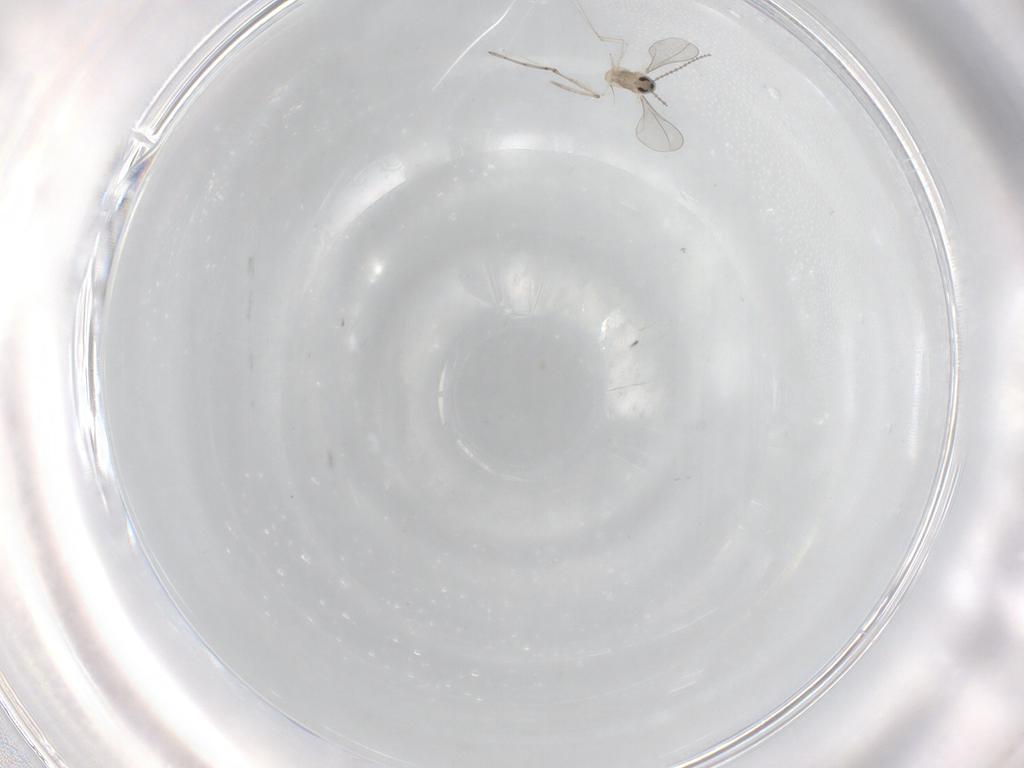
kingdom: Animalia
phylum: Arthropoda
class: Insecta
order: Diptera
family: Cecidomyiidae
